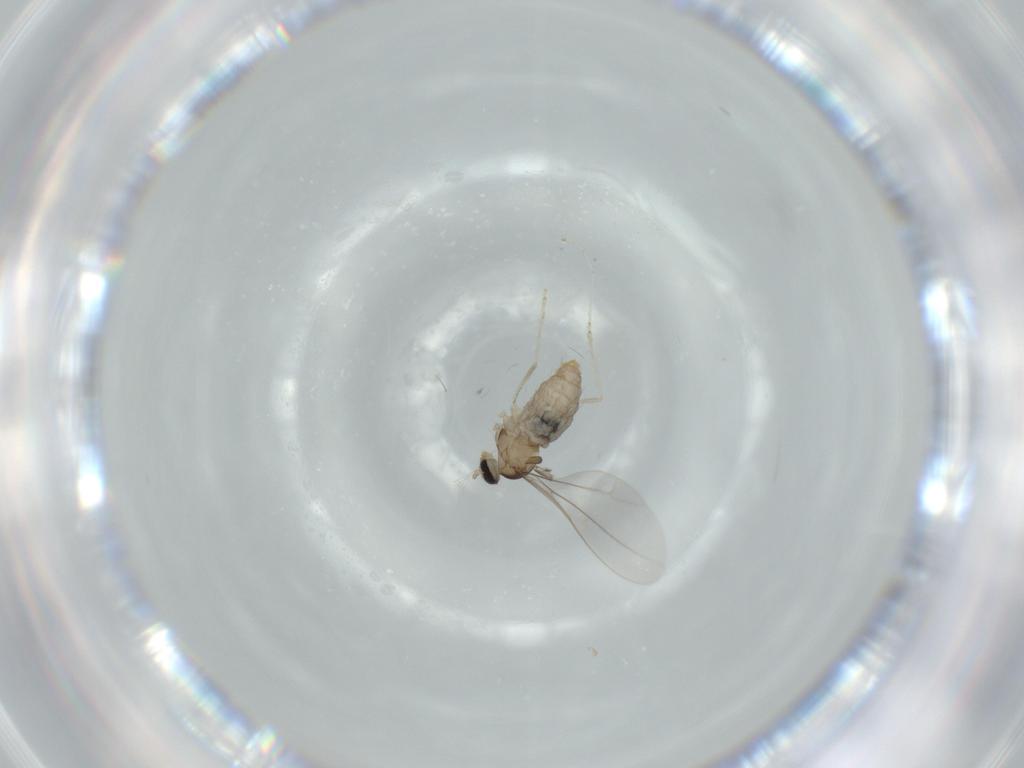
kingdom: Animalia
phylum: Arthropoda
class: Insecta
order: Diptera
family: Cecidomyiidae
